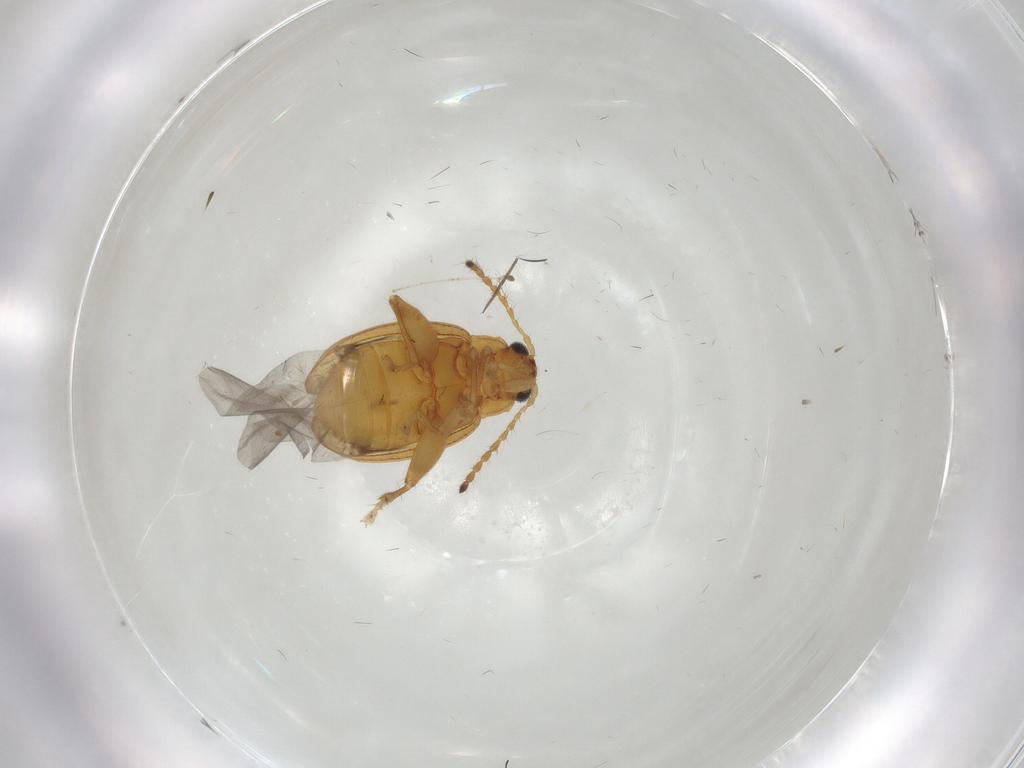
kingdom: Animalia
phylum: Arthropoda
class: Insecta
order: Coleoptera
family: Chrysomelidae
